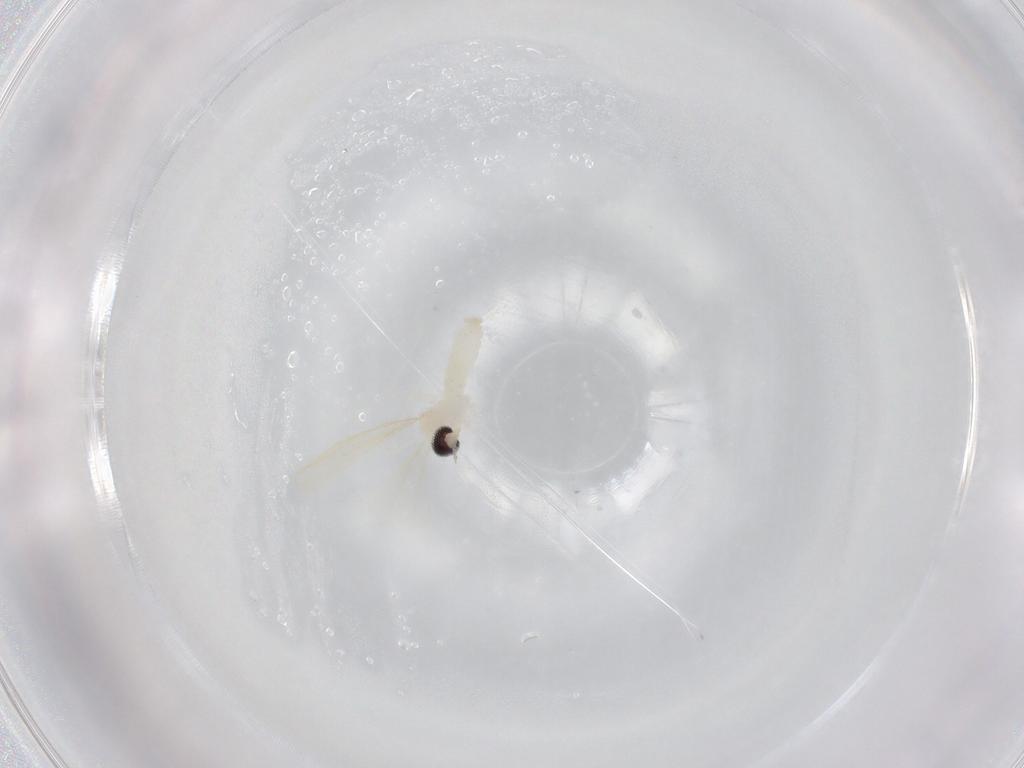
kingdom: Animalia
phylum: Arthropoda
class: Insecta
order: Diptera
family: Cecidomyiidae
